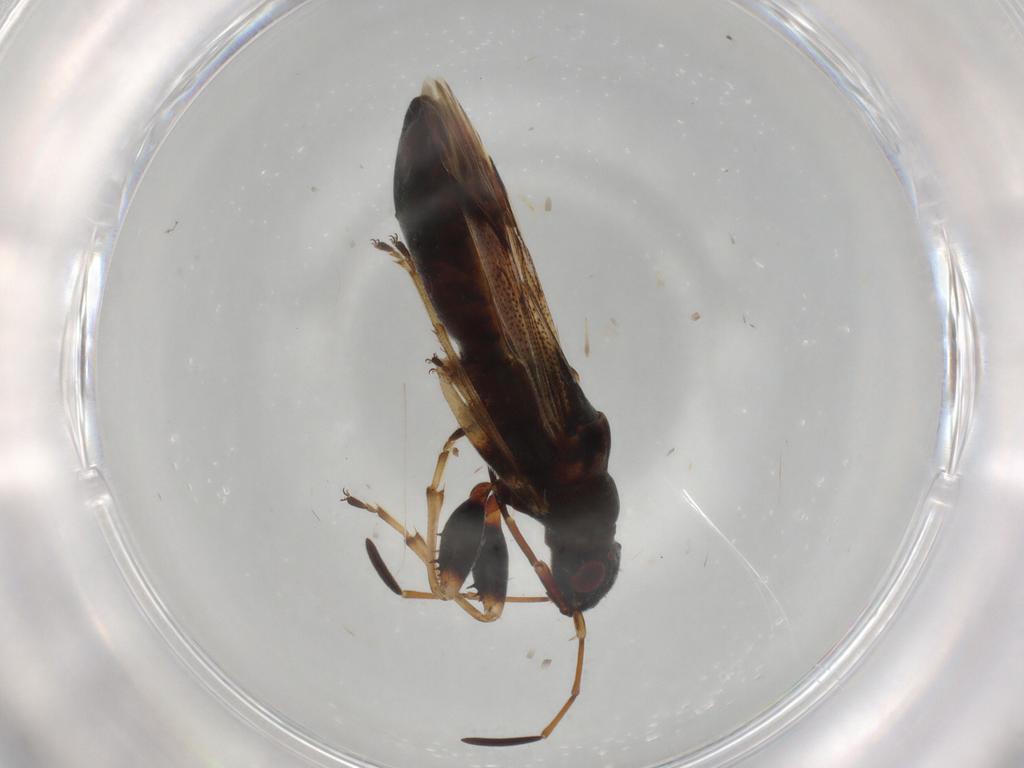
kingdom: Animalia
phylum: Arthropoda
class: Insecta
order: Hemiptera
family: Rhyparochromidae
